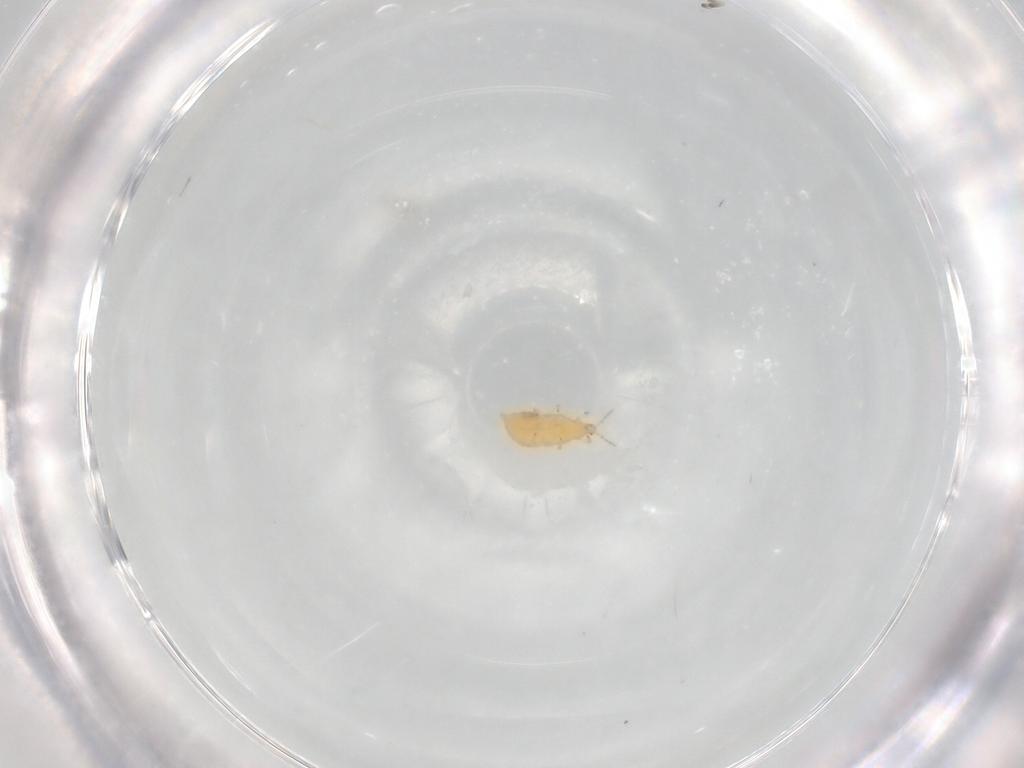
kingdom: Animalia
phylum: Arthropoda
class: Insecta
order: Thysanoptera
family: Heterothripidae
